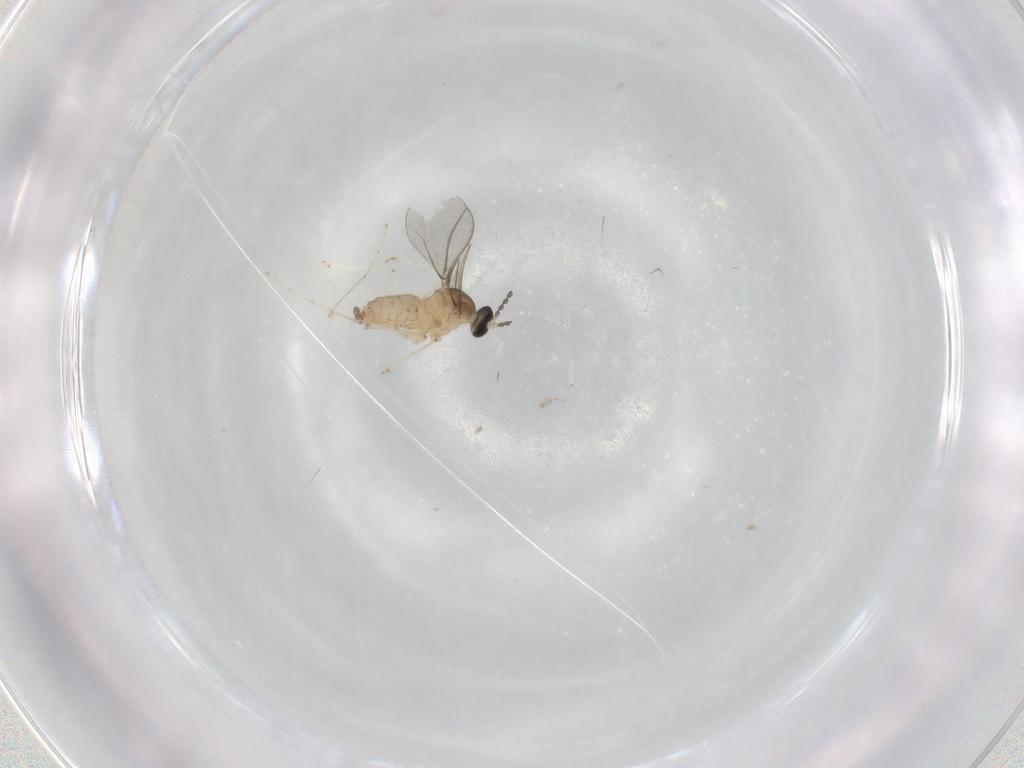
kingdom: Animalia
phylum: Arthropoda
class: Insecta
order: Diptera
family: Cecidomyiidae
